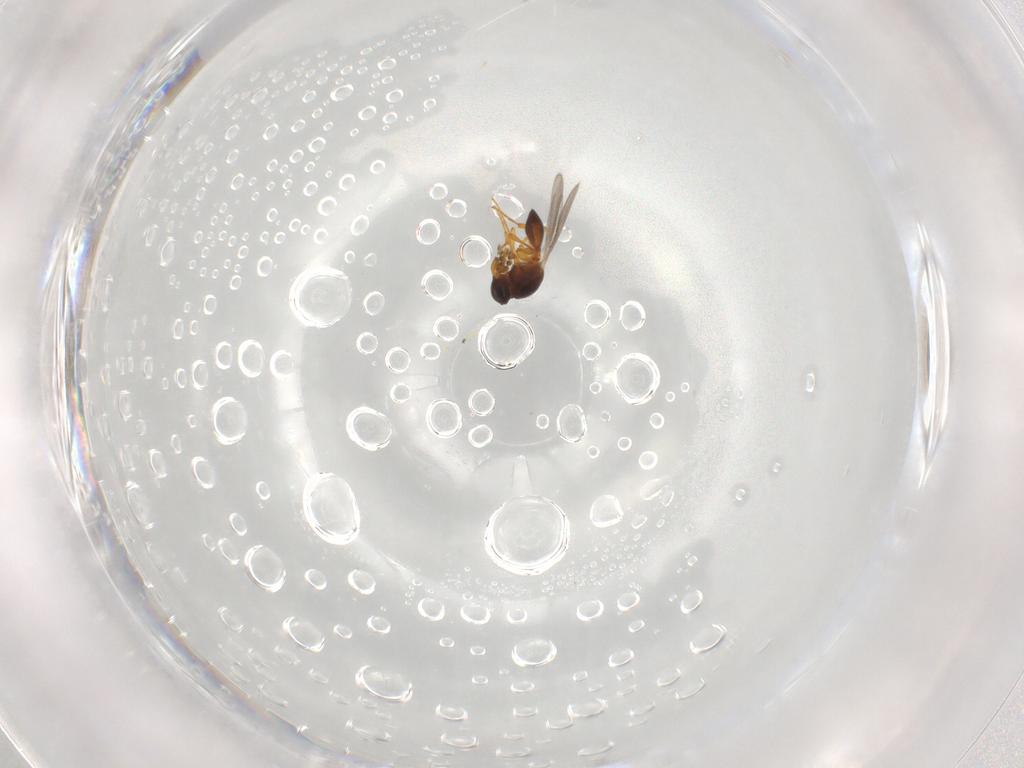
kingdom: Animalia
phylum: Arthropoda
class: Insecta
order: Hymenoptera
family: Platygastridae
